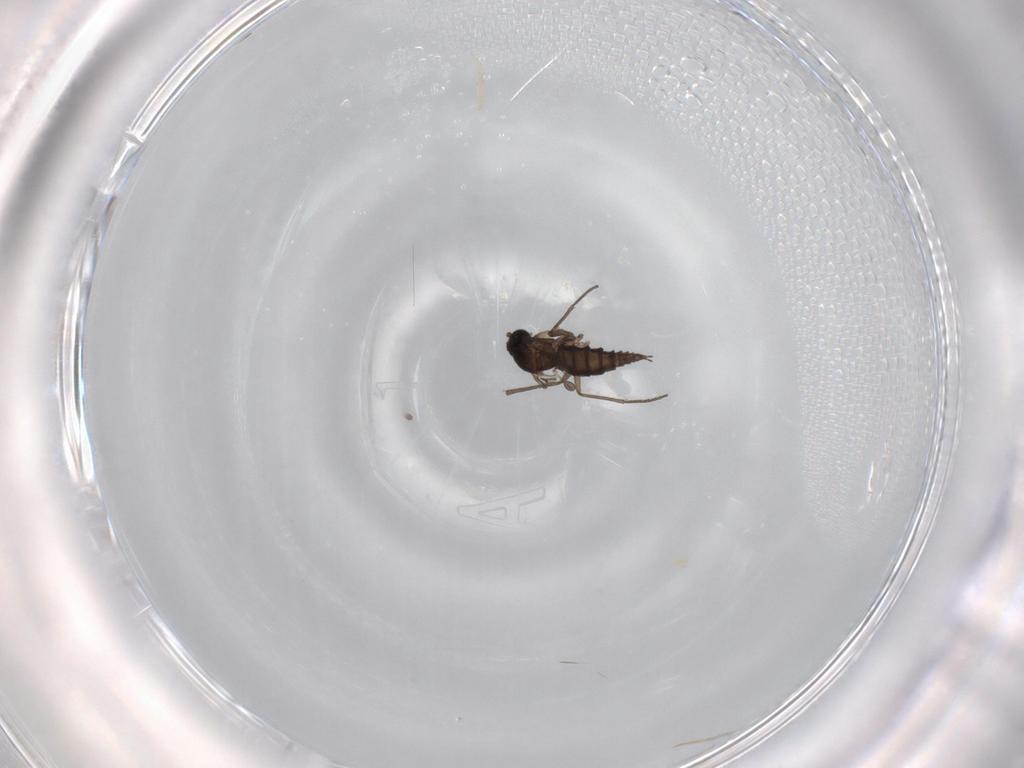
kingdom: Animalia
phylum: Arthropoda
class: Insecta
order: Diptera
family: Sciaridae
